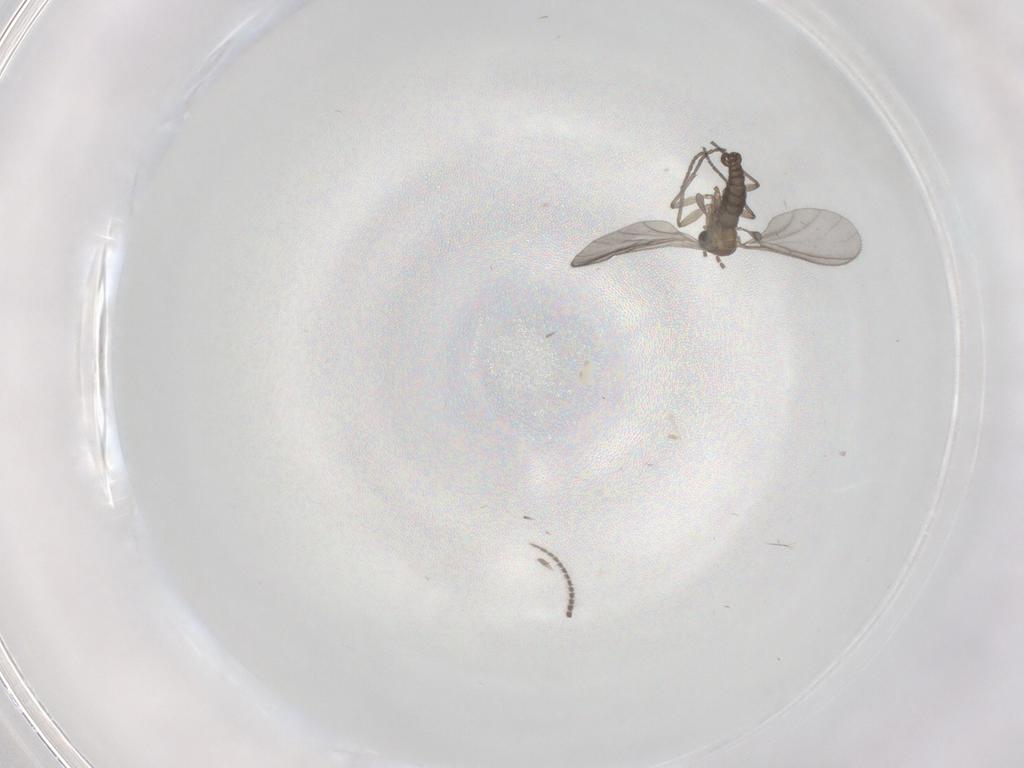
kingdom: Animalia
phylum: Arthropoda
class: Insecta
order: Diptera
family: Sciaridae
